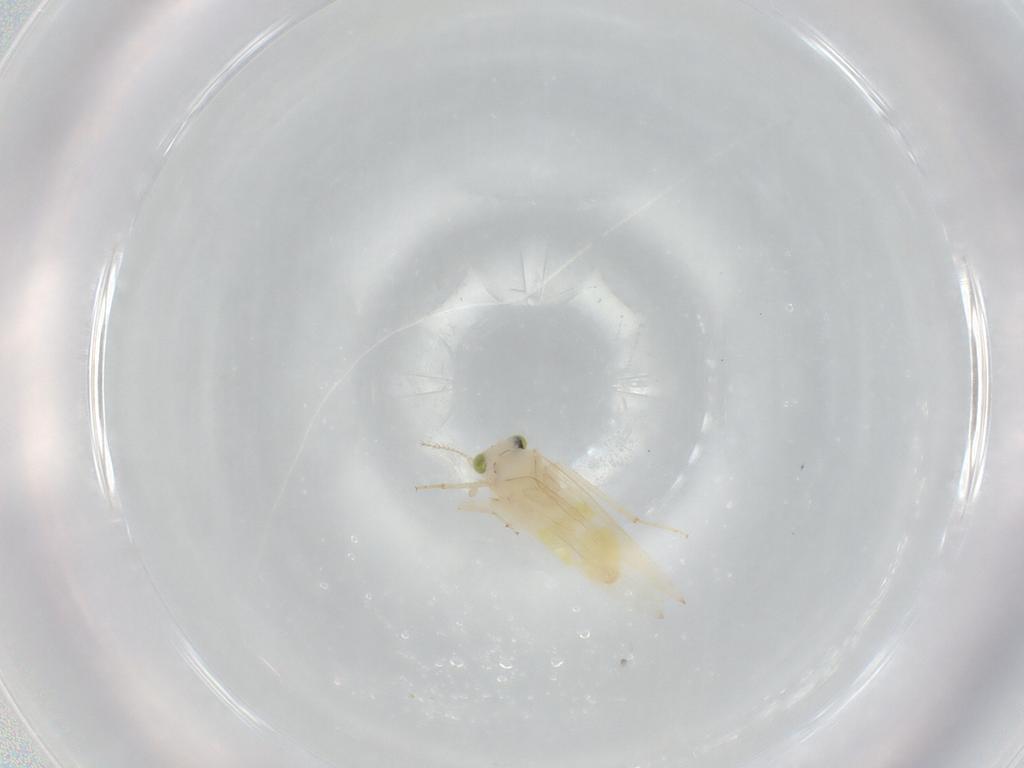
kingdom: Animalia
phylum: Arthropoda
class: Insecta
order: Psocodea
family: Lepidopsocidae
